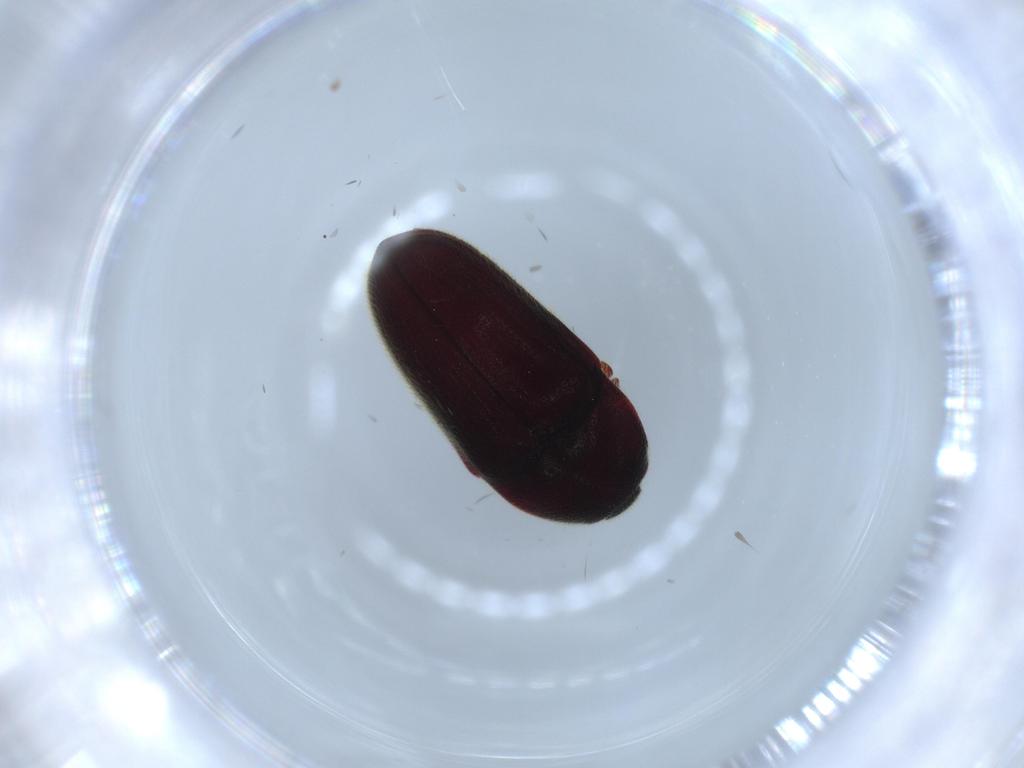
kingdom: Animalia
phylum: Arthropoda
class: Insecta
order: Coleoptera
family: Throscidae
